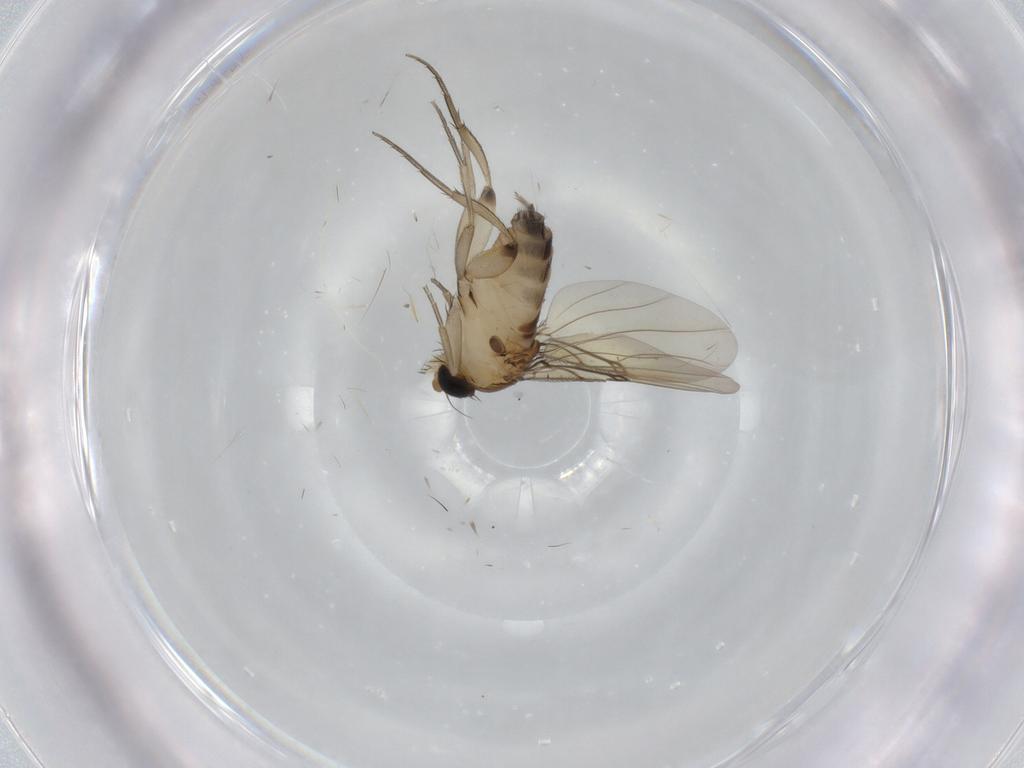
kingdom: Animalia
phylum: Arthropoda
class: Insecta
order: Diptera
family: Phoridae
